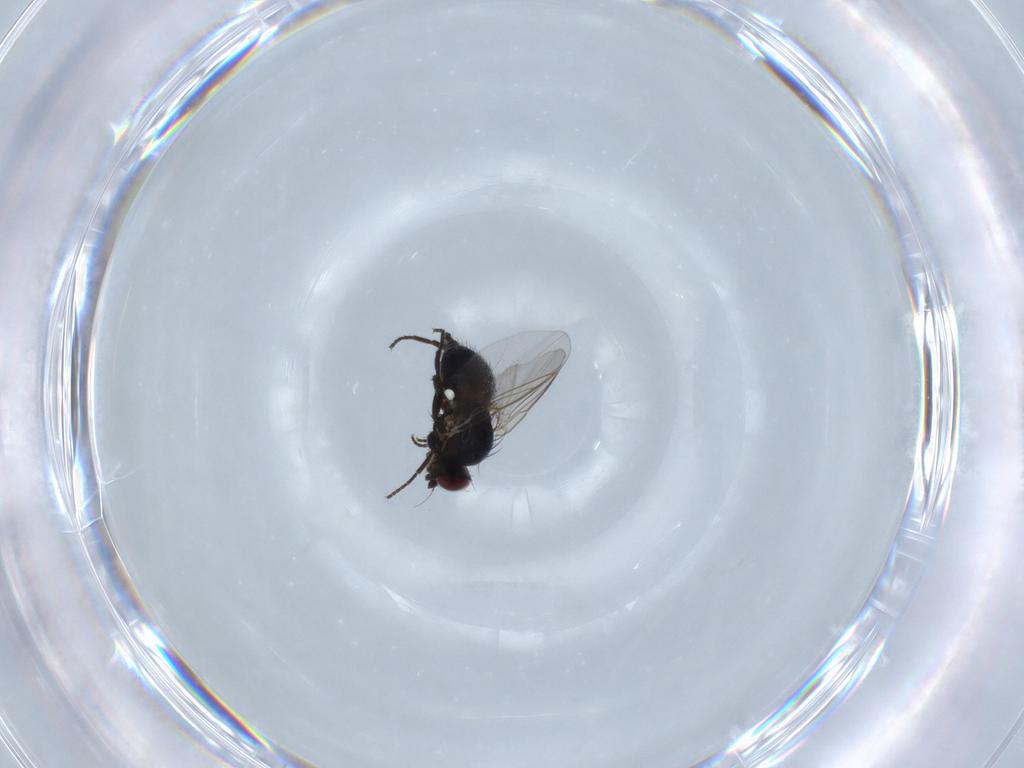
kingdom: Animalia
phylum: Arthropoda
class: Insecta
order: Diptera
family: Agromyzidae
